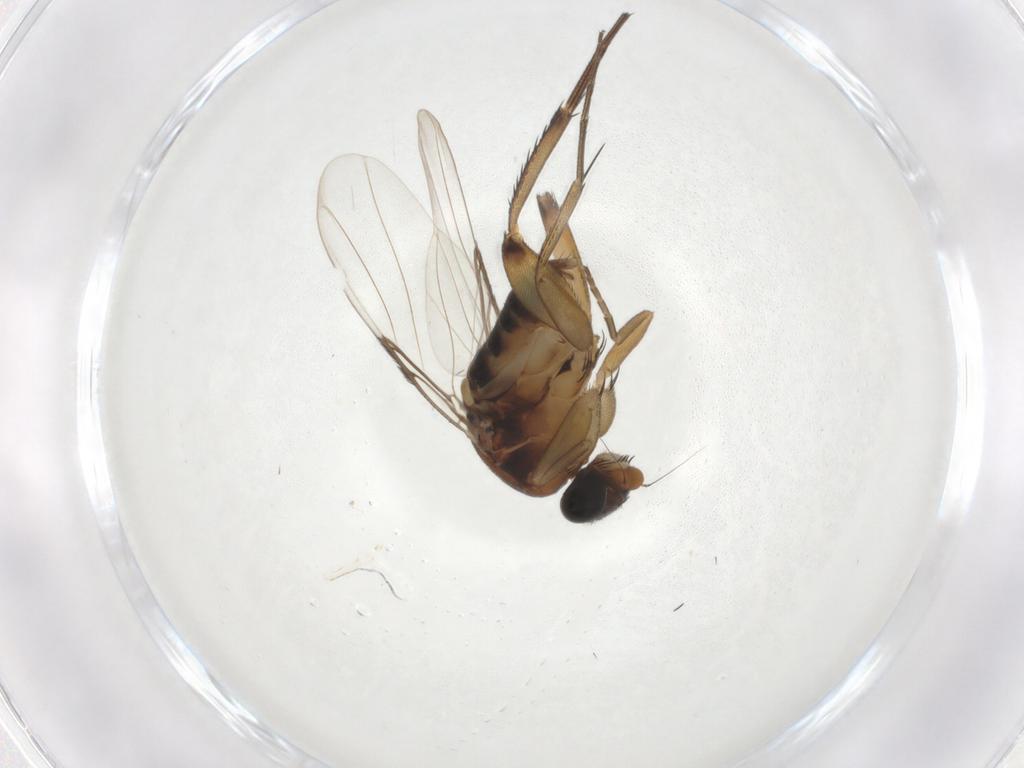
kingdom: Animalia
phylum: Arthropoda
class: Insecta
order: Diptera
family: Phoridae
